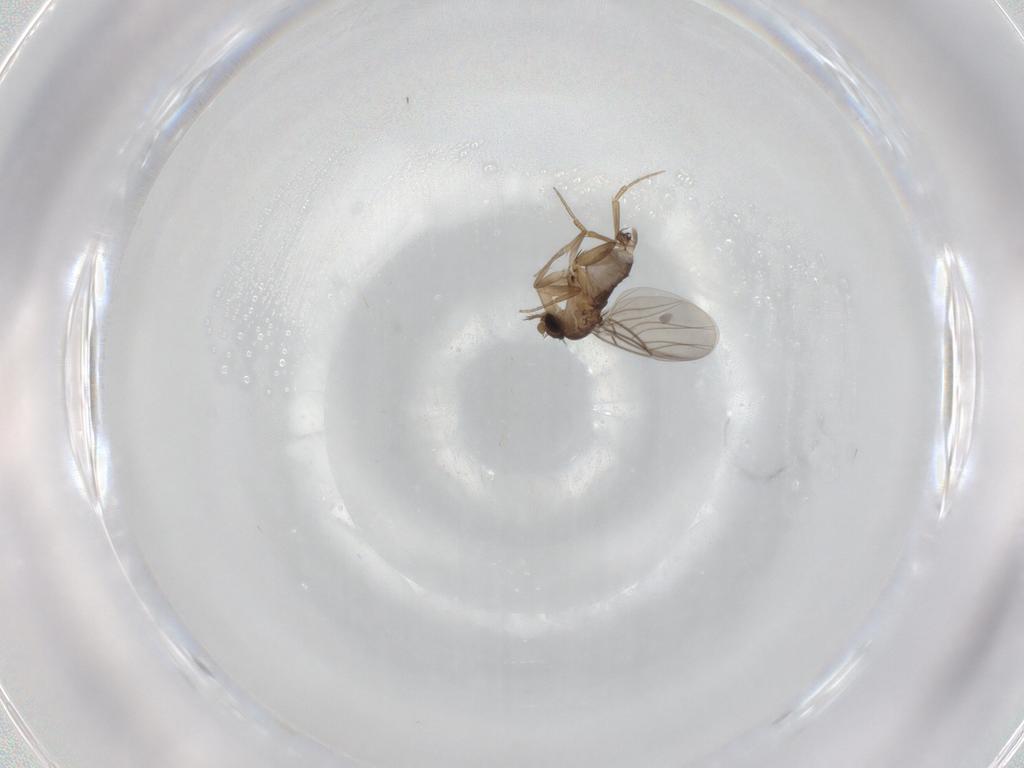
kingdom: Animalia
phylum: Arthropoda
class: Insecta
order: Diptera
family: Phoridae
